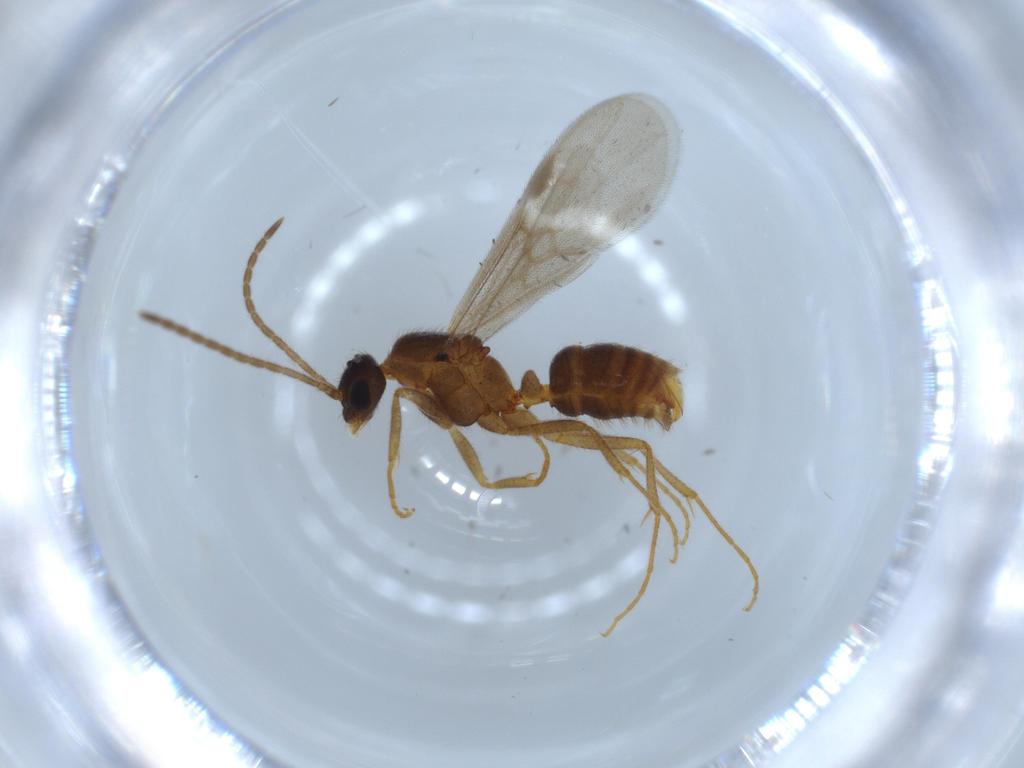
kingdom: Animalia
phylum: Arthropoda
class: Insecta
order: Hymenoptera
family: Formicidae
